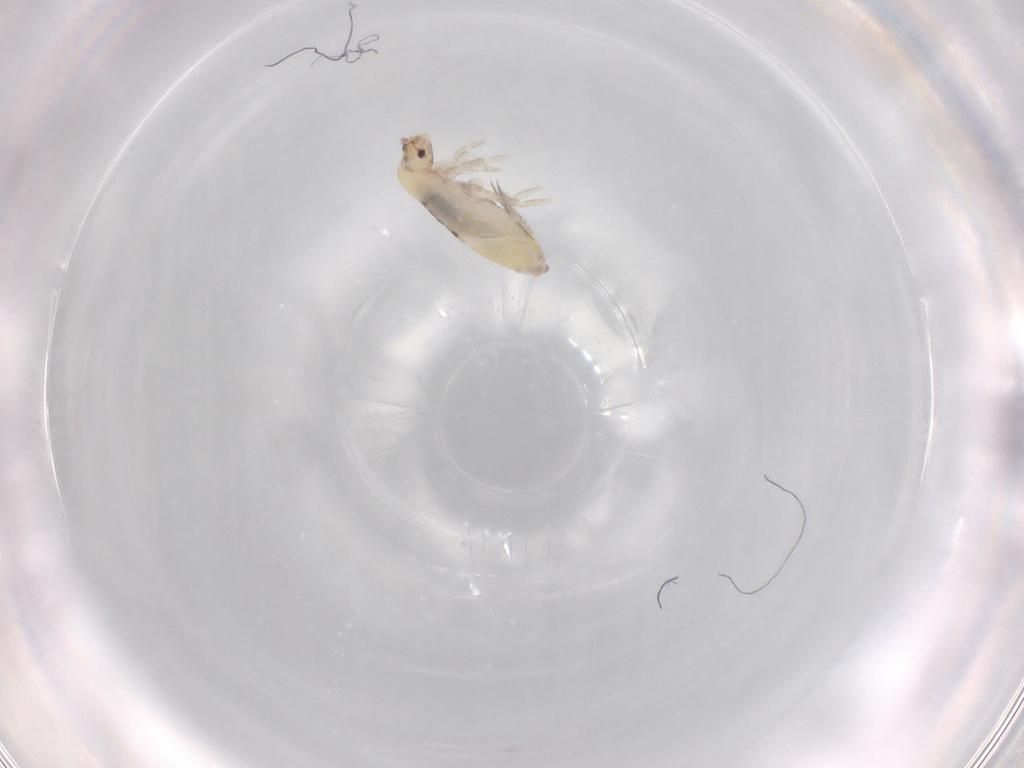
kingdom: Animalia
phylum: Arthropoda
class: Collembola
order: Entomobryomorpha
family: Entomobryidae
